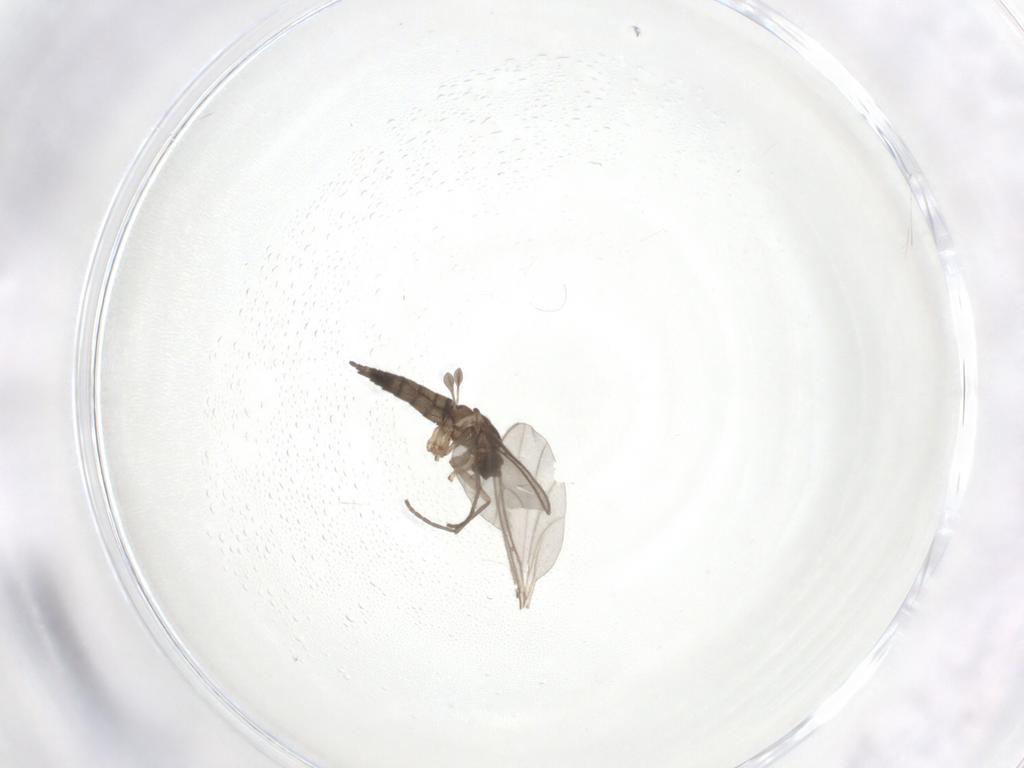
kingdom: Animalia
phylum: Arthropoda
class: Insecta
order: Diptera
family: Sciaridae
